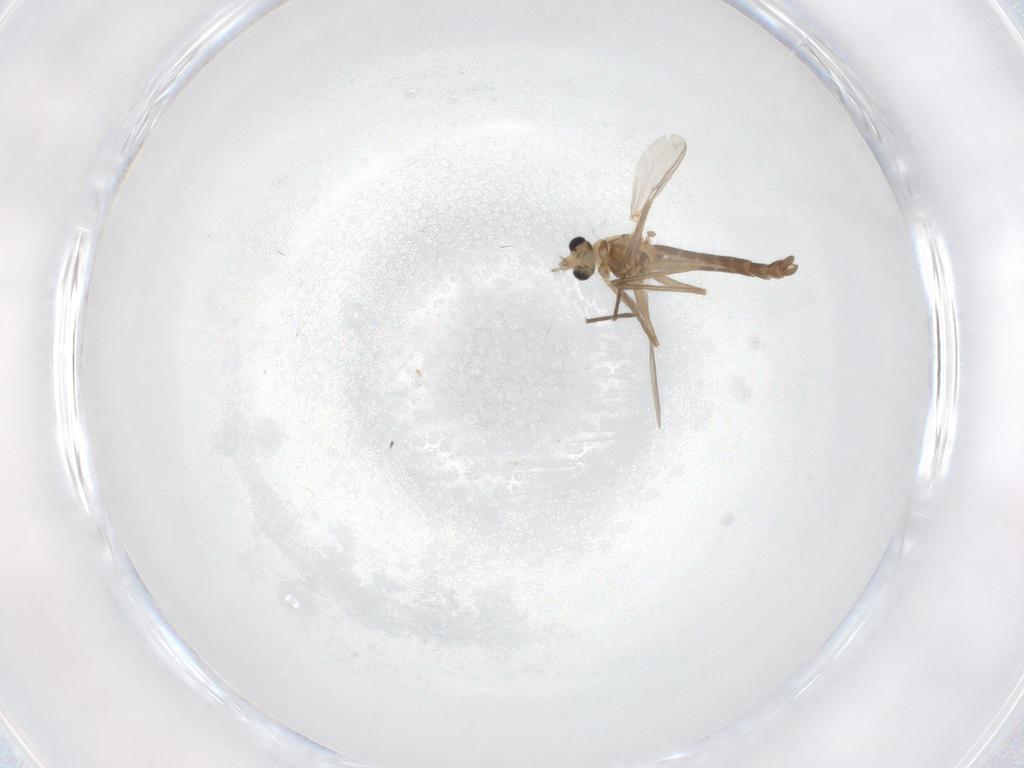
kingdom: Animalia
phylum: Arthropoda
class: Insecta
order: Diptera
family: Chironomidae
